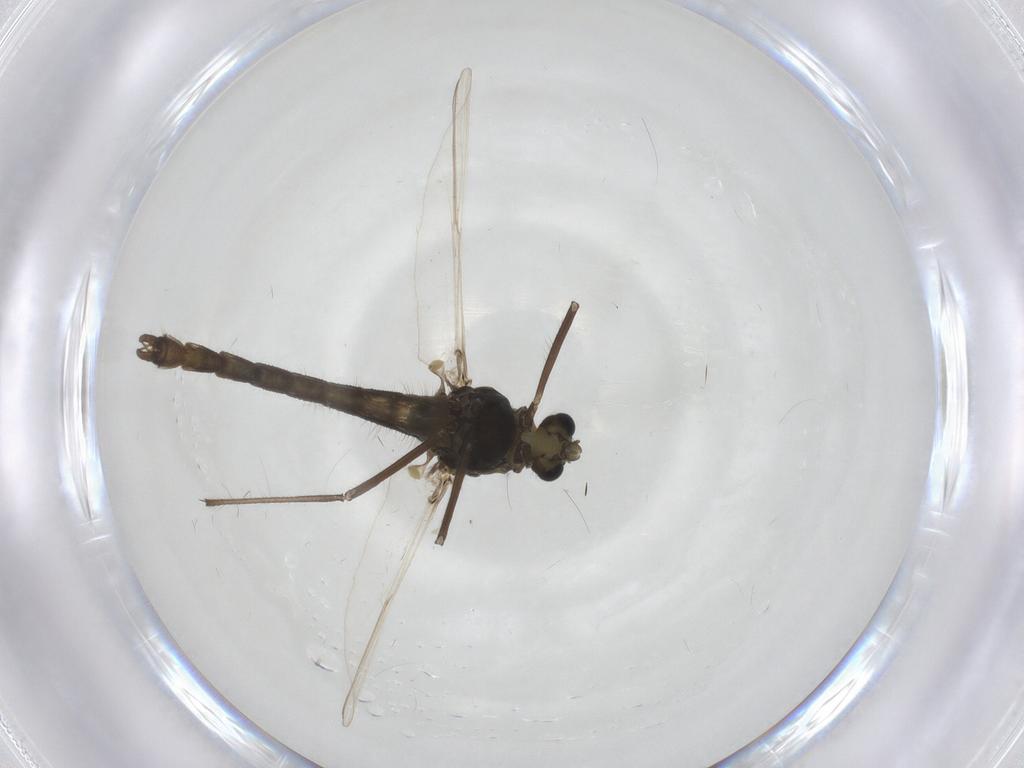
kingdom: Animalia
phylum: Arthropoda
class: Insecta
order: Diptera
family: Chironomidae
